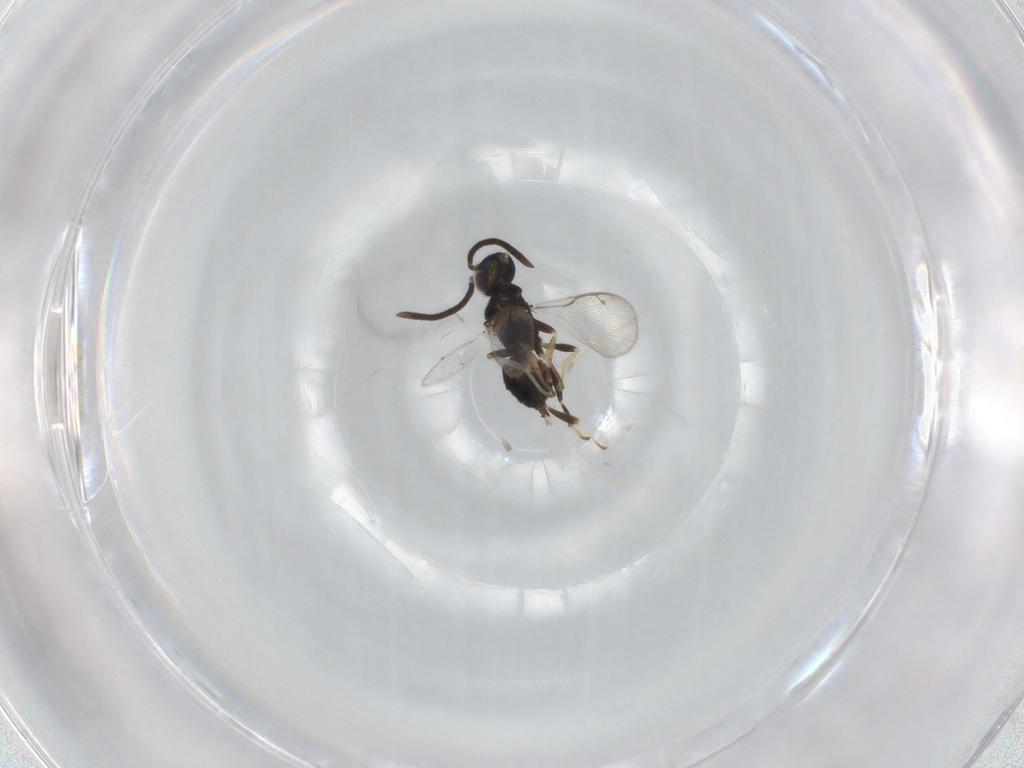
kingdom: Animalia
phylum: Arthropoda
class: Insecta
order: Hymenoptera
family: Eupelmidae
